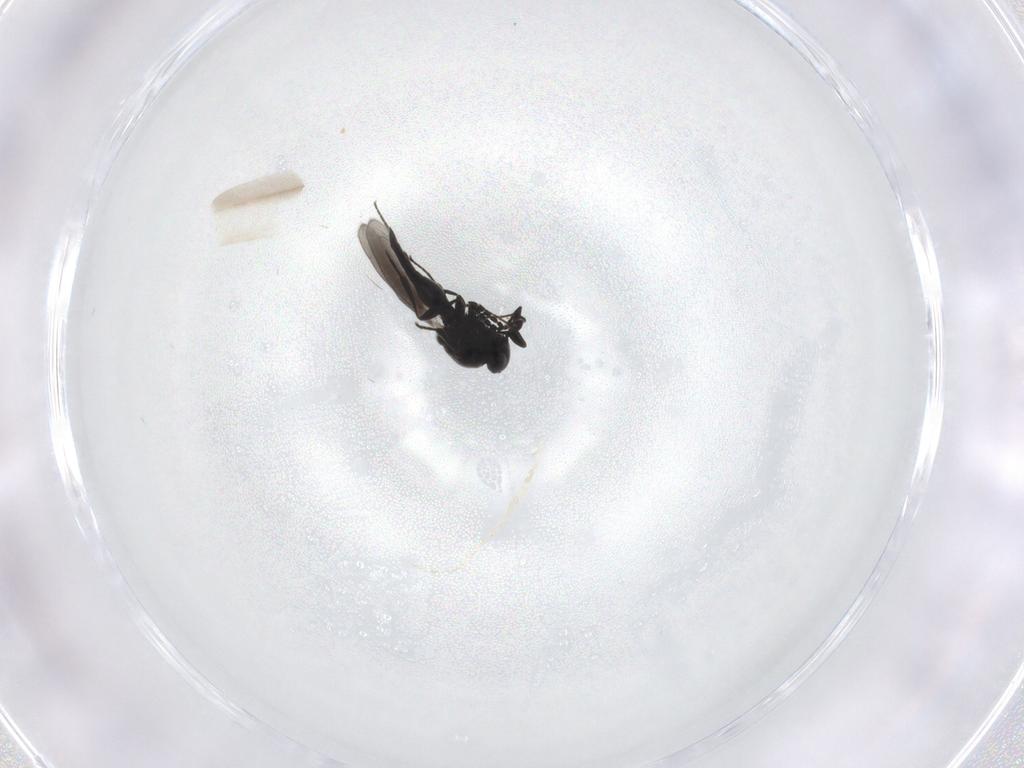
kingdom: Animalia
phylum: Arthropoda
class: Insecta
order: Hymenoptera
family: Platygastridae
